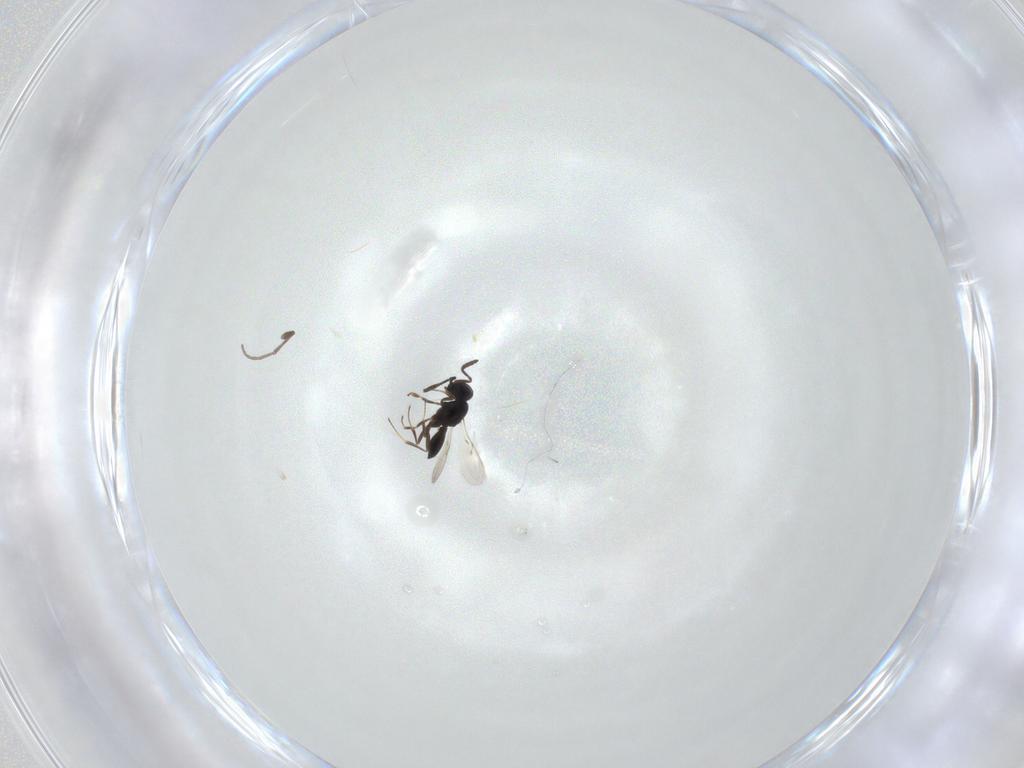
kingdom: Animalia
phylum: Arthropoda
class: Insecta
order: Hymenoptera
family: Scelionidae
